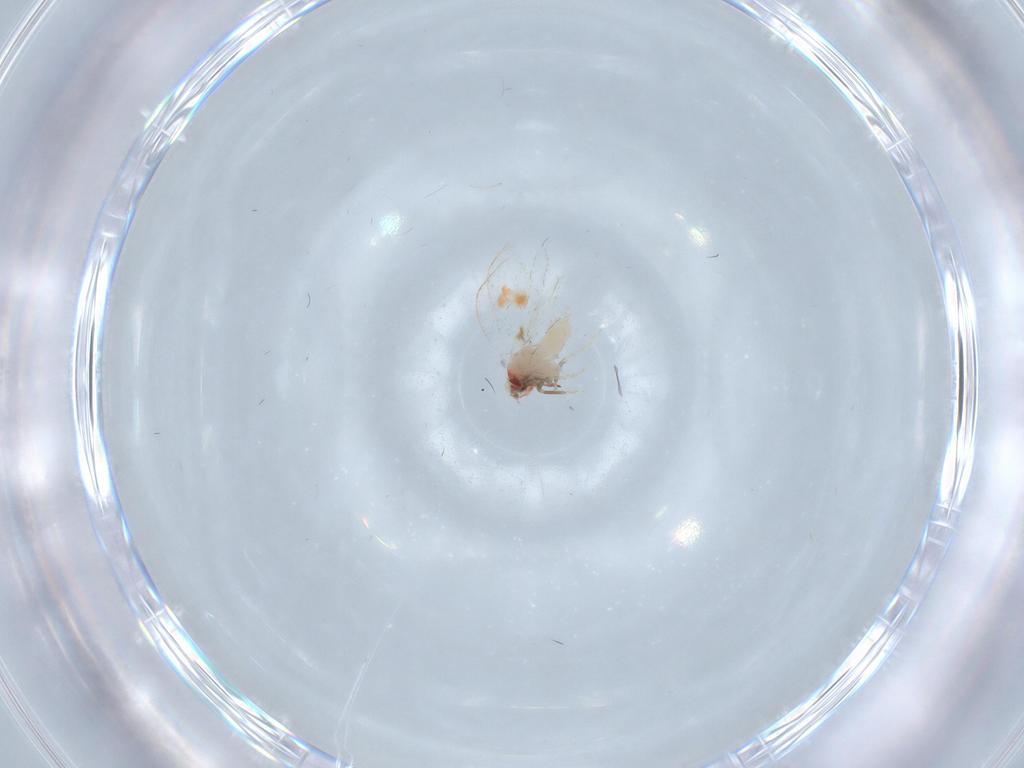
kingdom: Animalia
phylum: Arthropoda
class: Insecta
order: Hemiptera
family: Aleyrodidae
